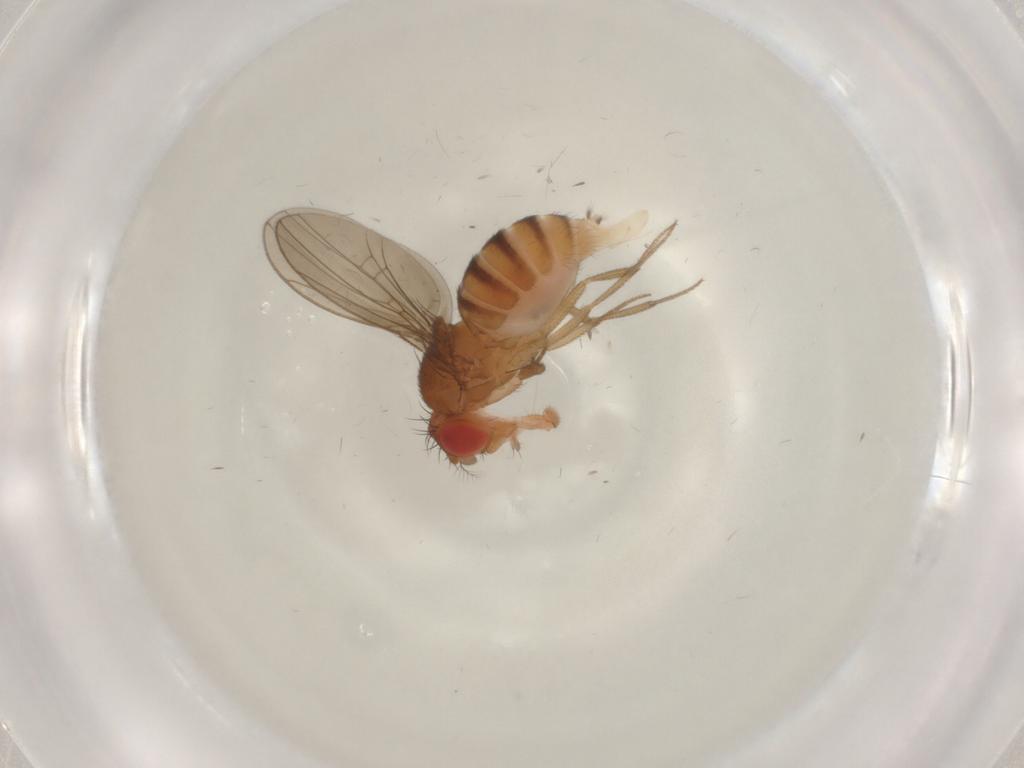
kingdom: Animalia
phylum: Arthropoda
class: Insecta
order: Diptera
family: Drosophilidae
